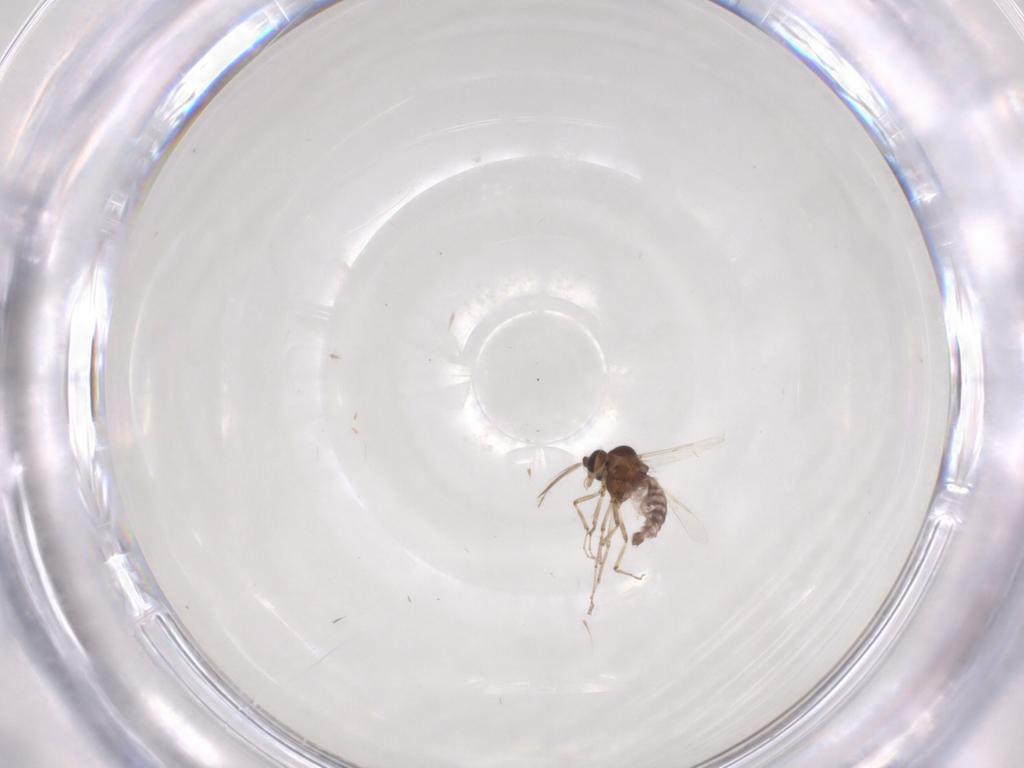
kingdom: Animalia
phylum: Arthropoda
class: Insecta
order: Diptera
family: Ceratopogonidae
